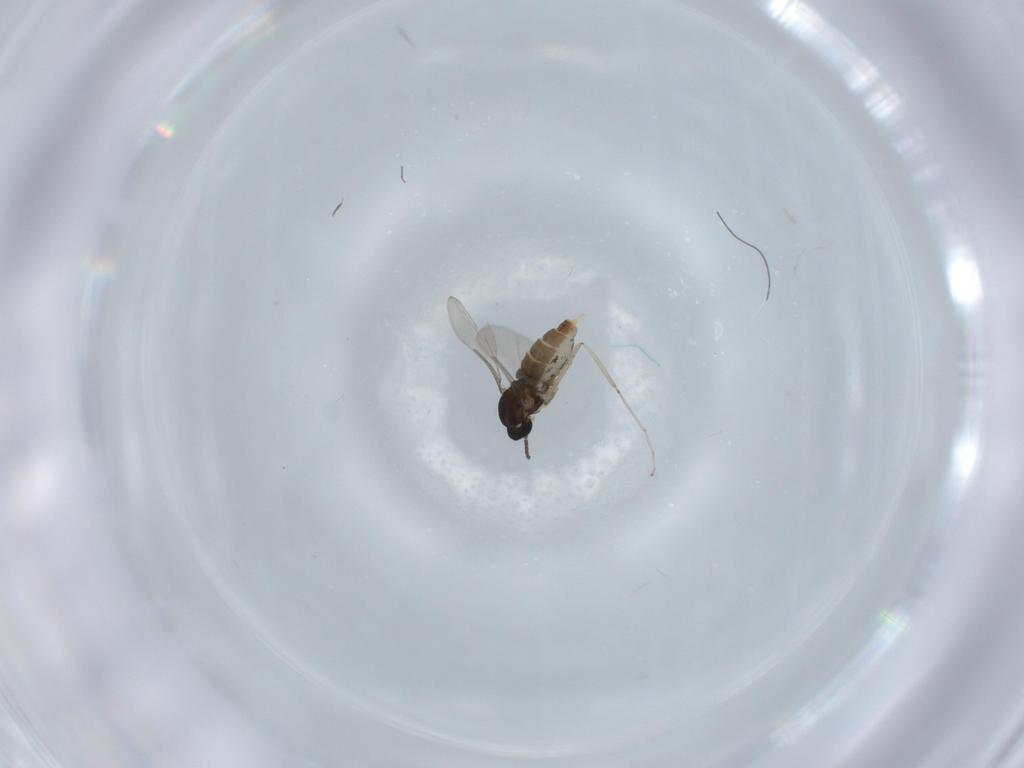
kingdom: Animalia
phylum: Arthropoda
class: Insecta
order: Diptera
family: Cecidomyiidae
